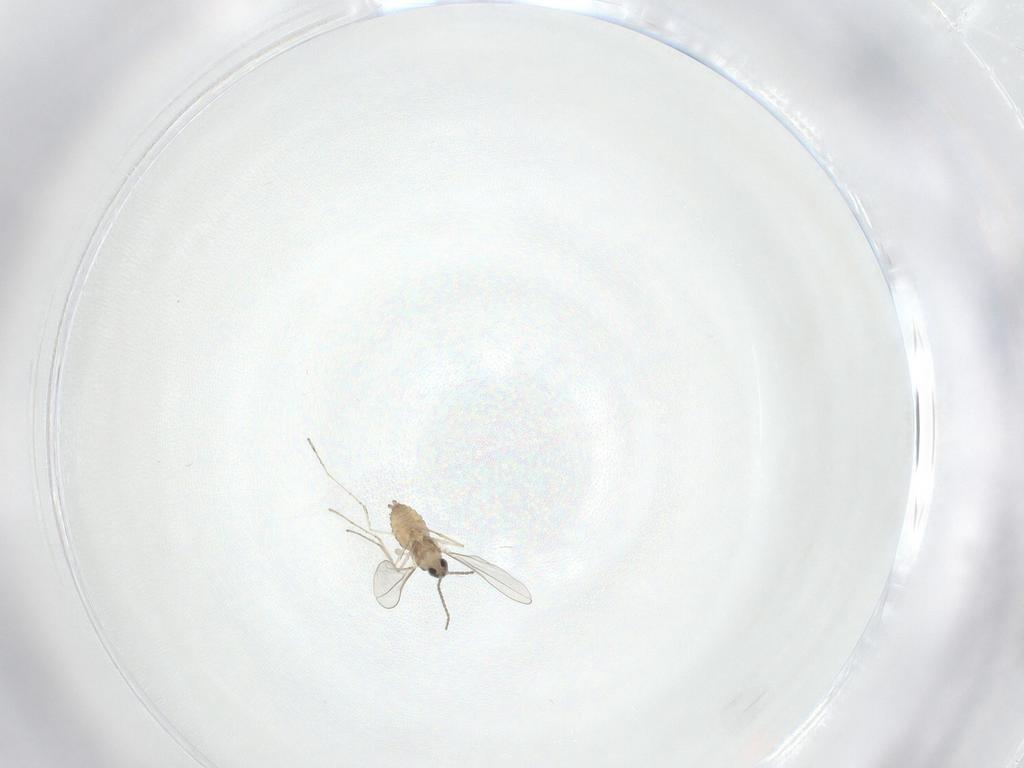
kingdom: Animalia
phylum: Arthropoda
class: Insecta
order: Diptera
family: Cecidomyiidae
